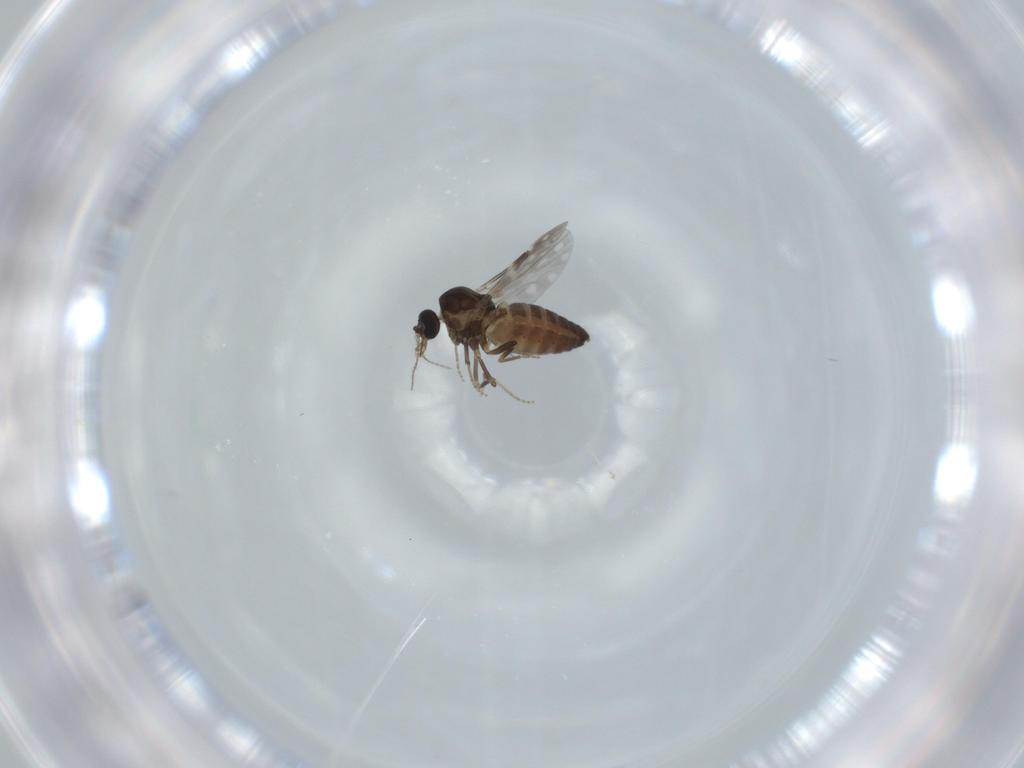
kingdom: Animalia
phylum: Arthropoda
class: Insecta
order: Diptera
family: Ceratopogonidae
